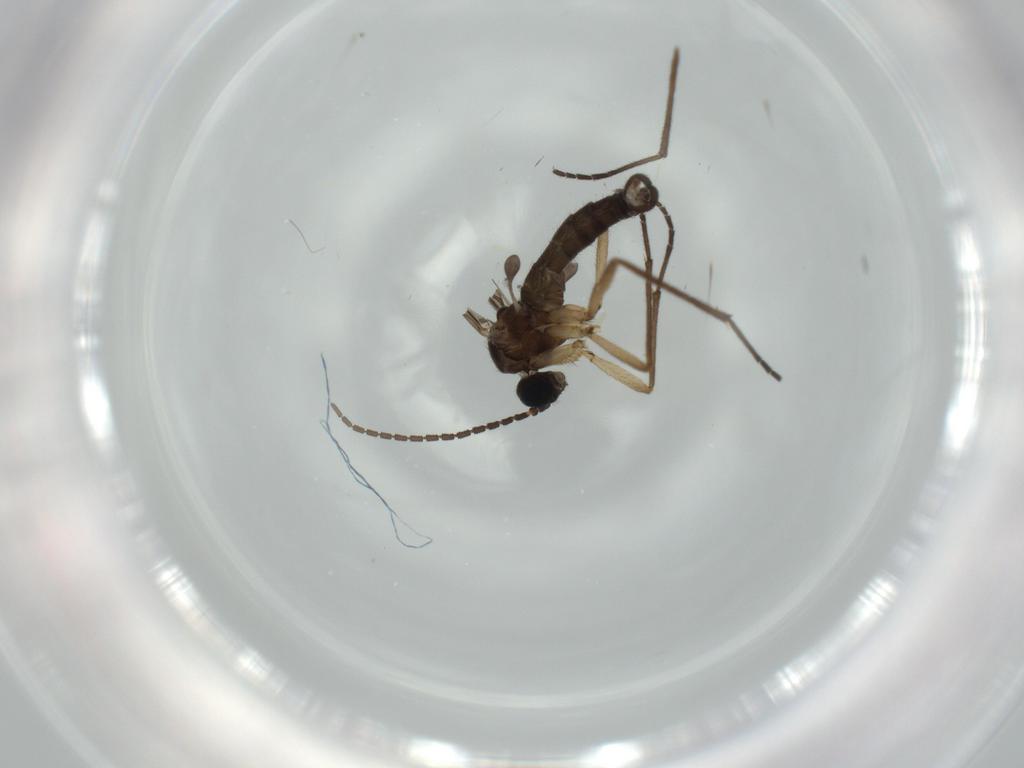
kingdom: Animalia
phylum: Arthropoda
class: Insecta
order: Diptera
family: Sciaridae
